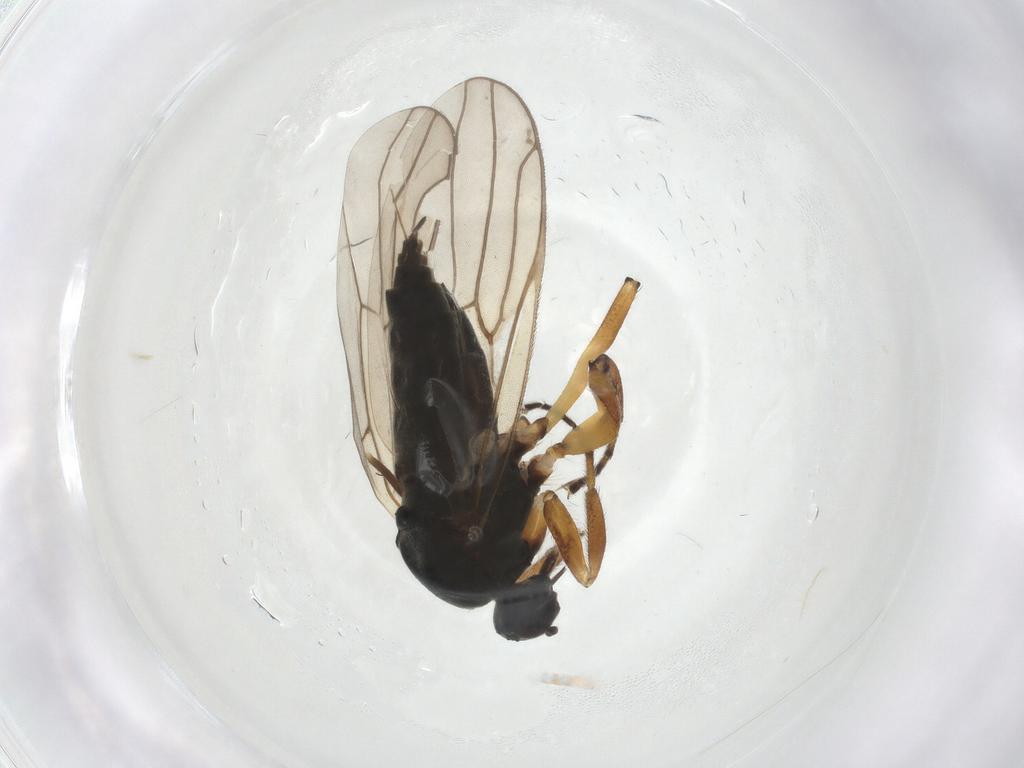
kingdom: Animalia
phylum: Arthropoda
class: Insecta
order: Diptera
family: Hybotidae
